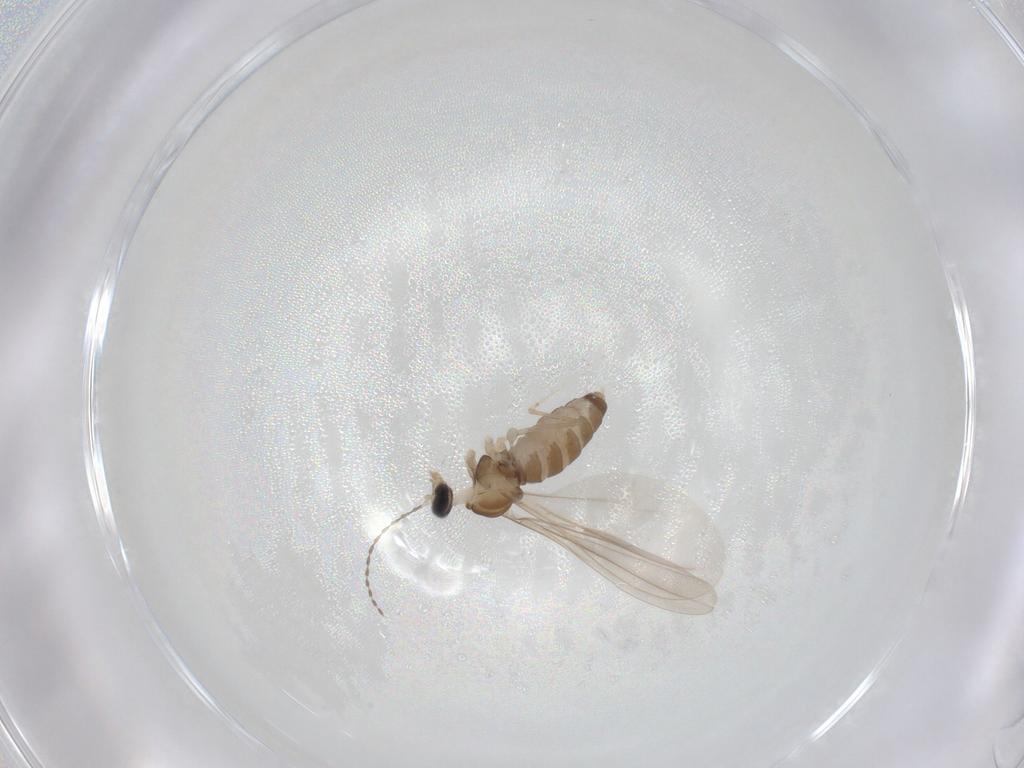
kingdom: Animalia
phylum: Arthropoda
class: Insecta
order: Diptera
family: Cecidomyiidae
